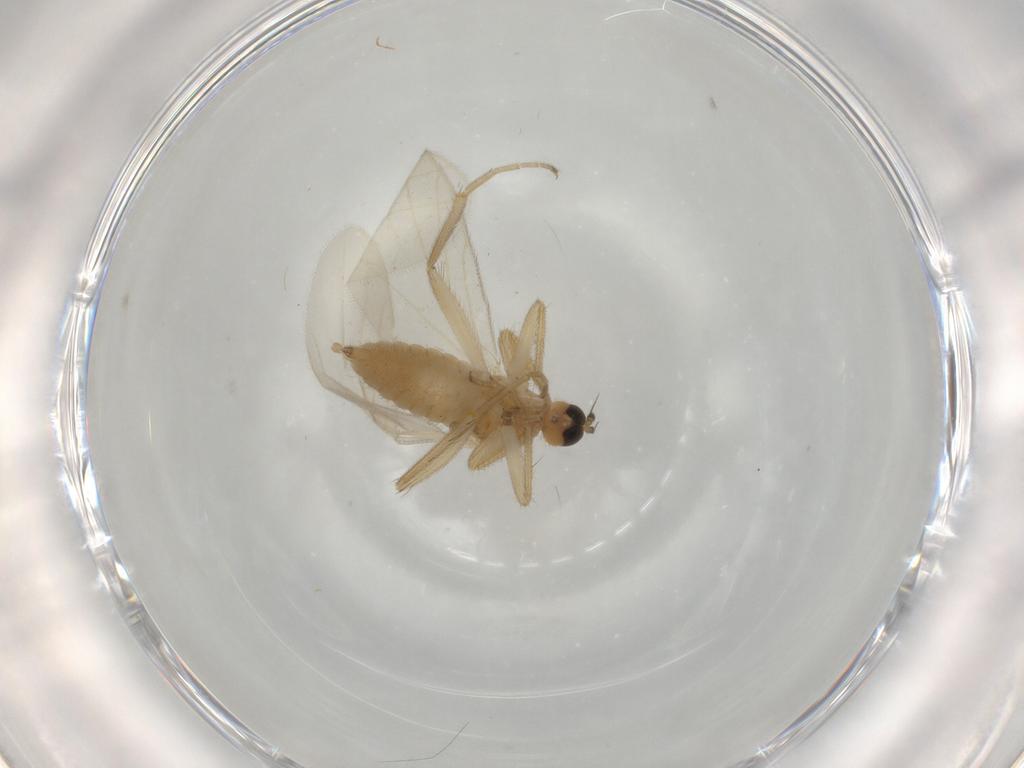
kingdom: Animalia
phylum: Arthropoda
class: Insecta
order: Diptera
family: Hybotidae
